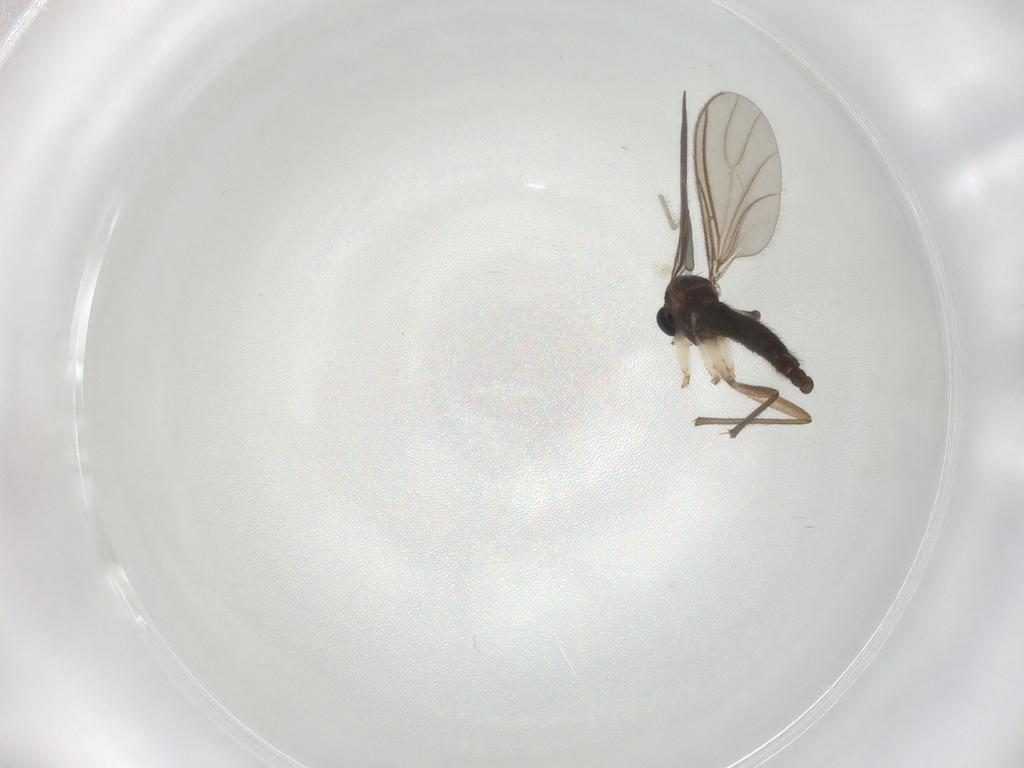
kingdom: Animalia
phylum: Arthropoda
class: Insecta
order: Diptera
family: Sciaridae
